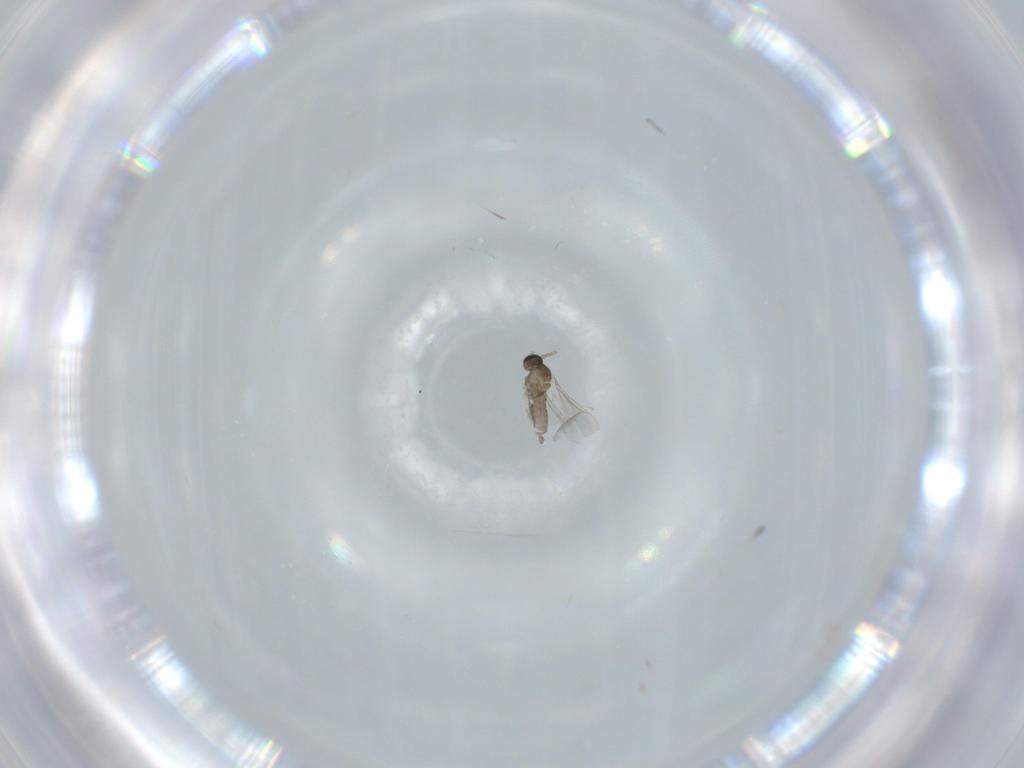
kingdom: Animalia
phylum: Arthropoda
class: Insecta
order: Diptera
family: Cecidomyiidae
